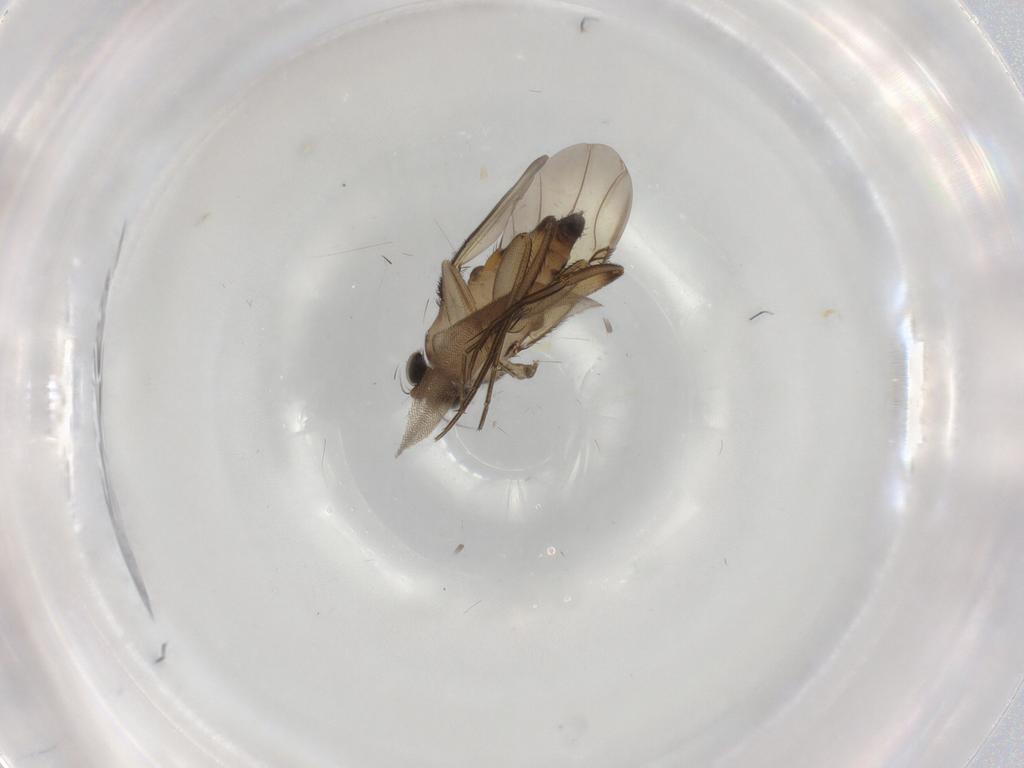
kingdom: Animalia
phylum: Arthropoda
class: Insecta
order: Diptera
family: Phoridae
